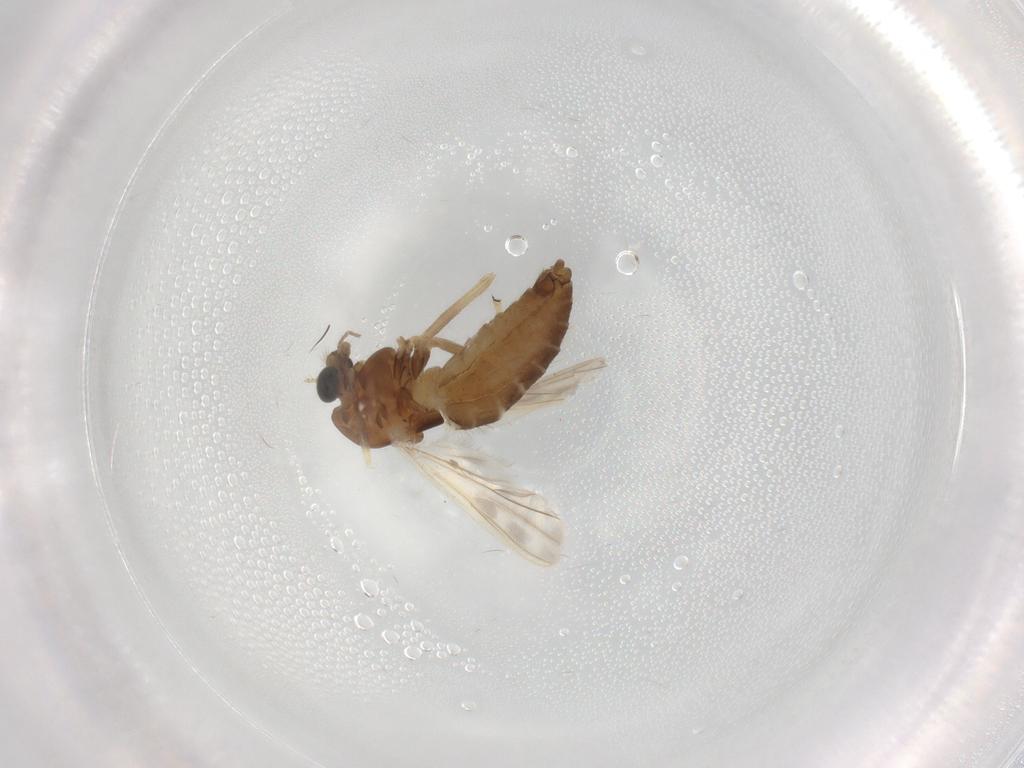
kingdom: Animalia
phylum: Arthropoda
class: Insecta
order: Diptera
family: Chironomidae
